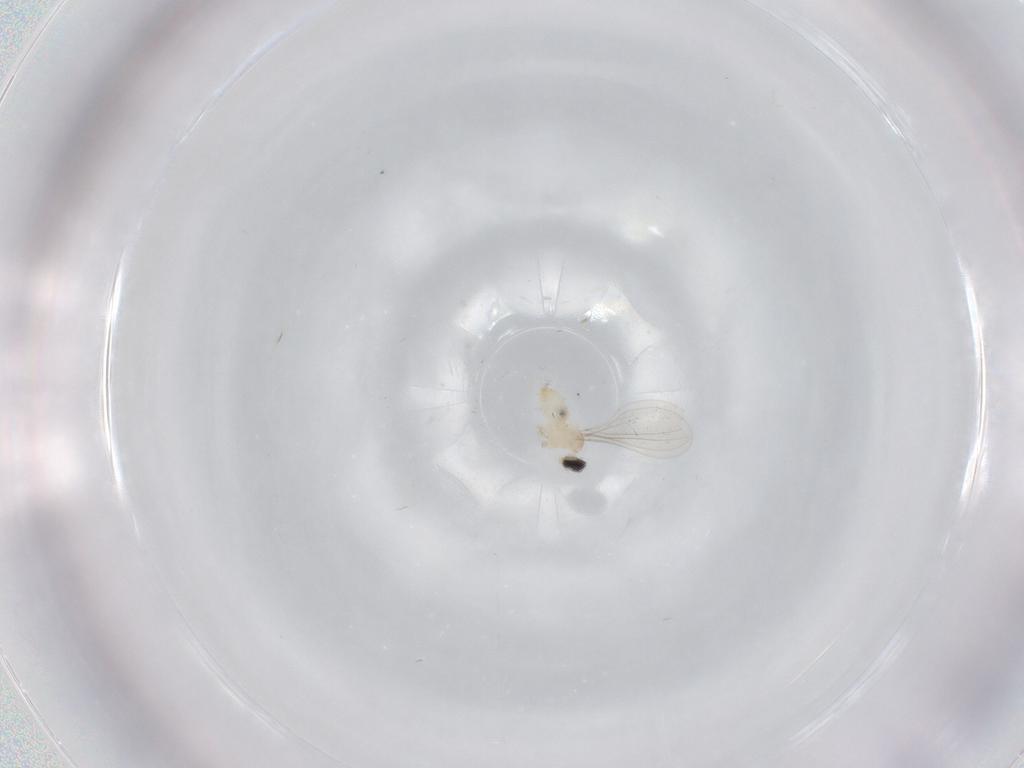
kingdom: Animalia
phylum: Arthropoda
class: Insecta
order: Diptera
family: Cecidomyiidae
